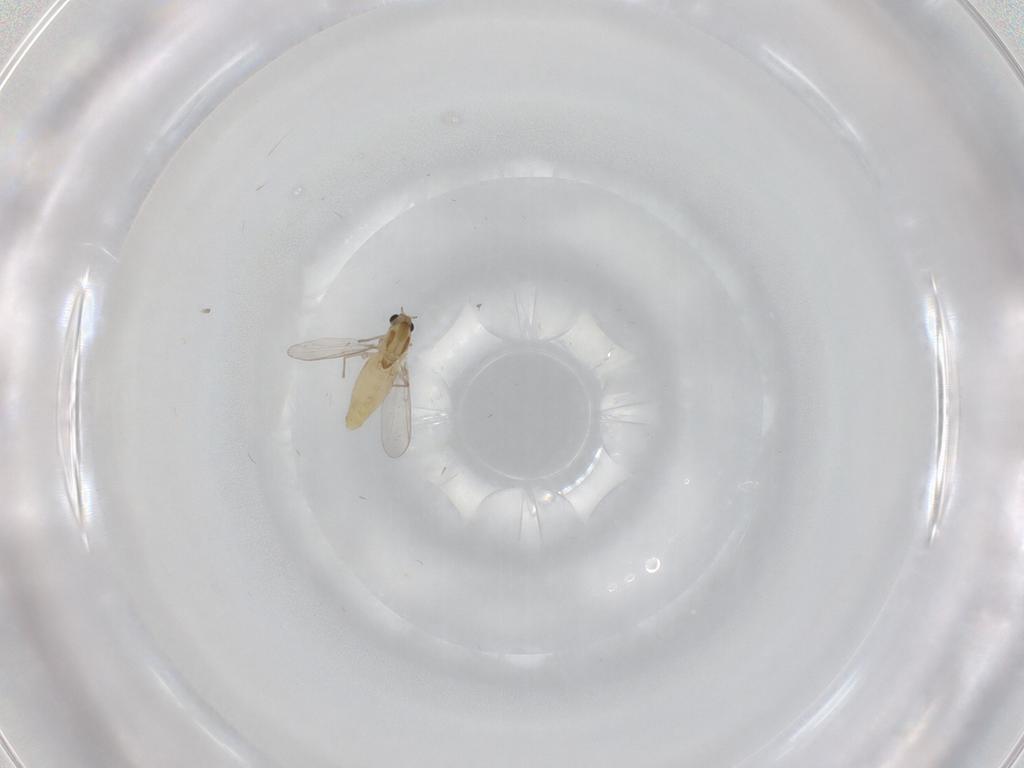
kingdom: Animalia
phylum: Arthropoda
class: Insecta
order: Diptera
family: Chironomidae
